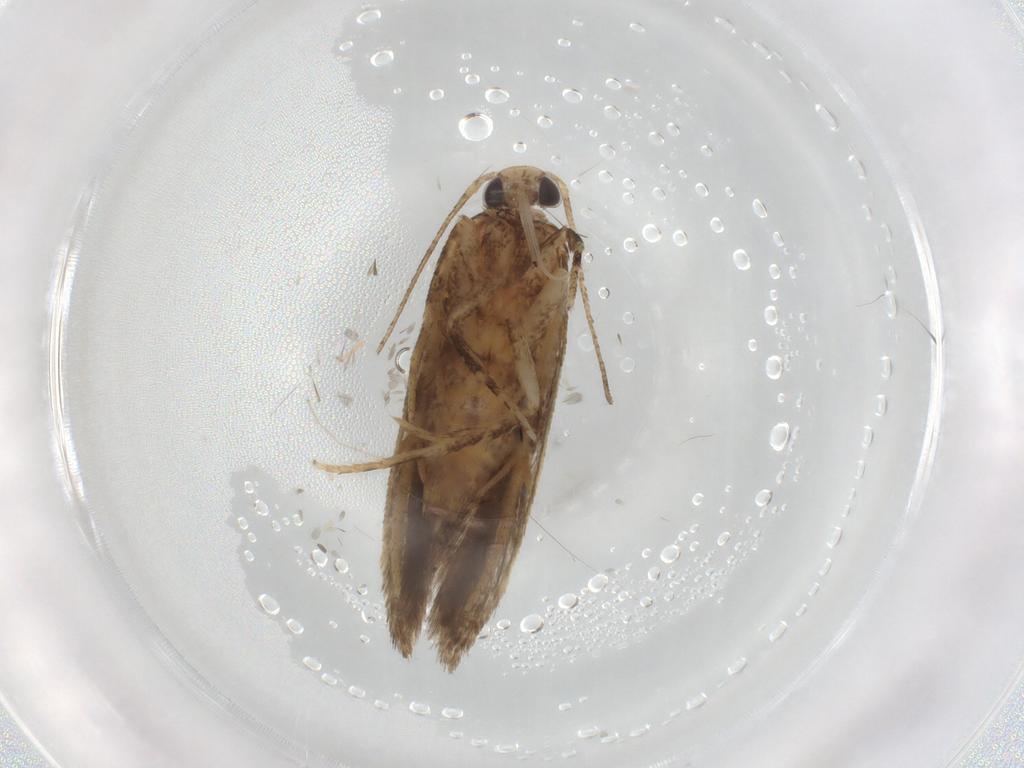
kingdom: Animalia
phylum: Arthropoda
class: Insecta
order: Lepidoptera
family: Gelechiidae
